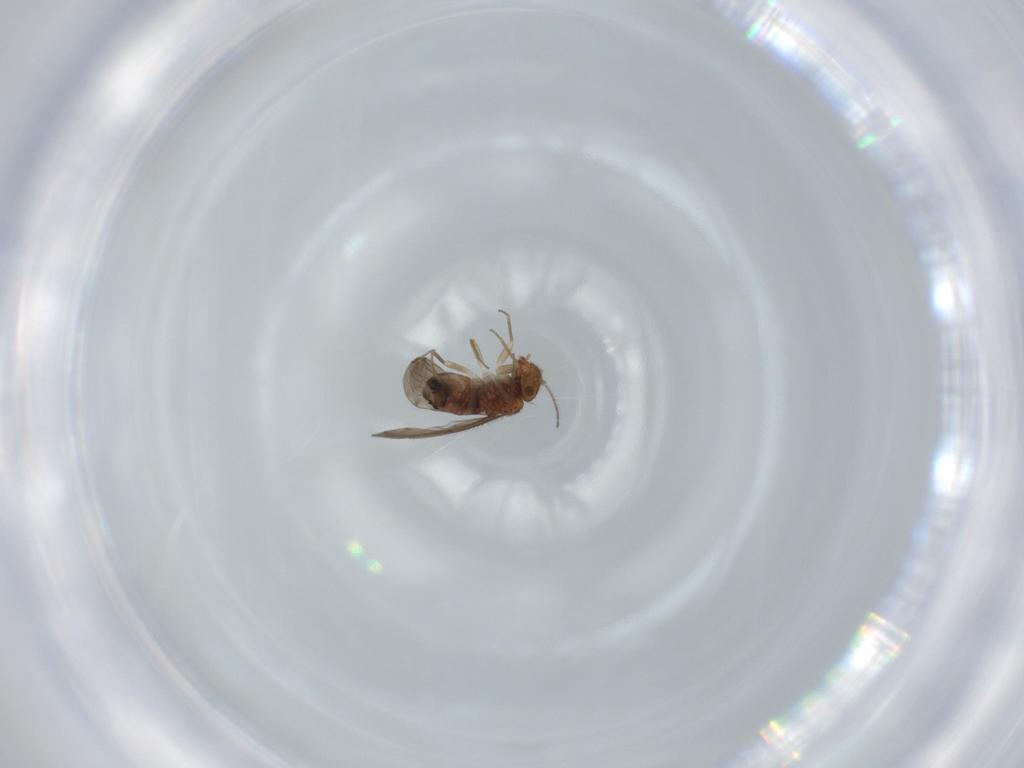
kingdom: Animalia
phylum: Arthropoda
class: Insecta
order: Psocodea
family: Ectopsocidae
